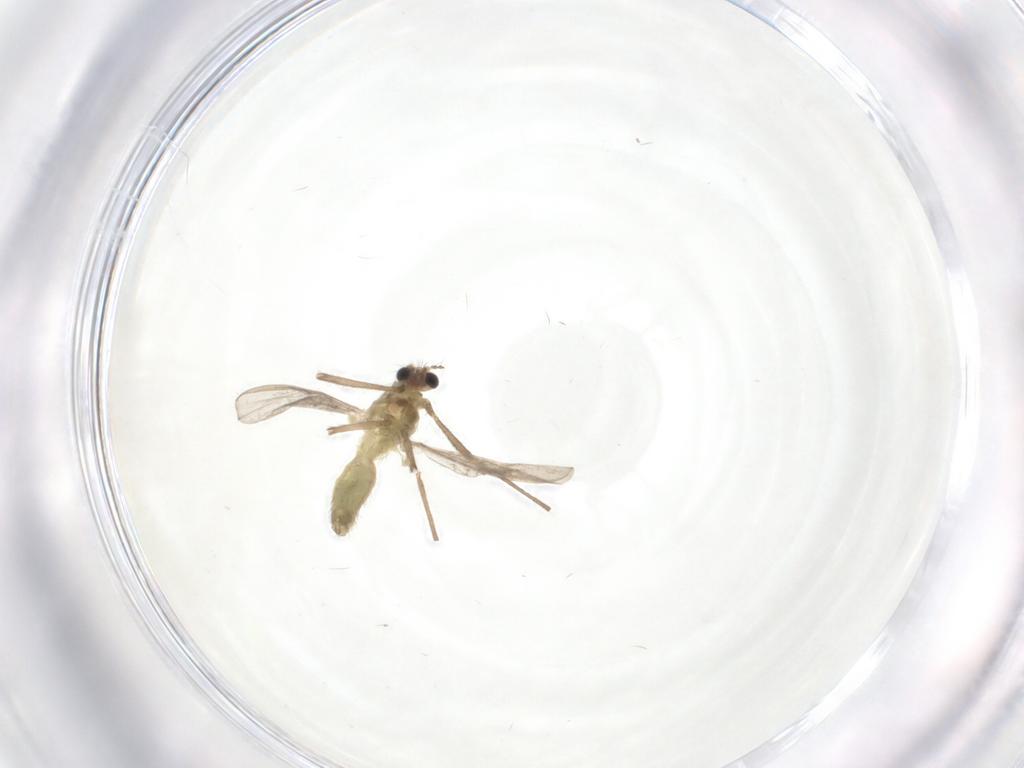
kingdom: Animalia
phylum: Arthropoda
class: Insecta
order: Diptera
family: Chironomidae
